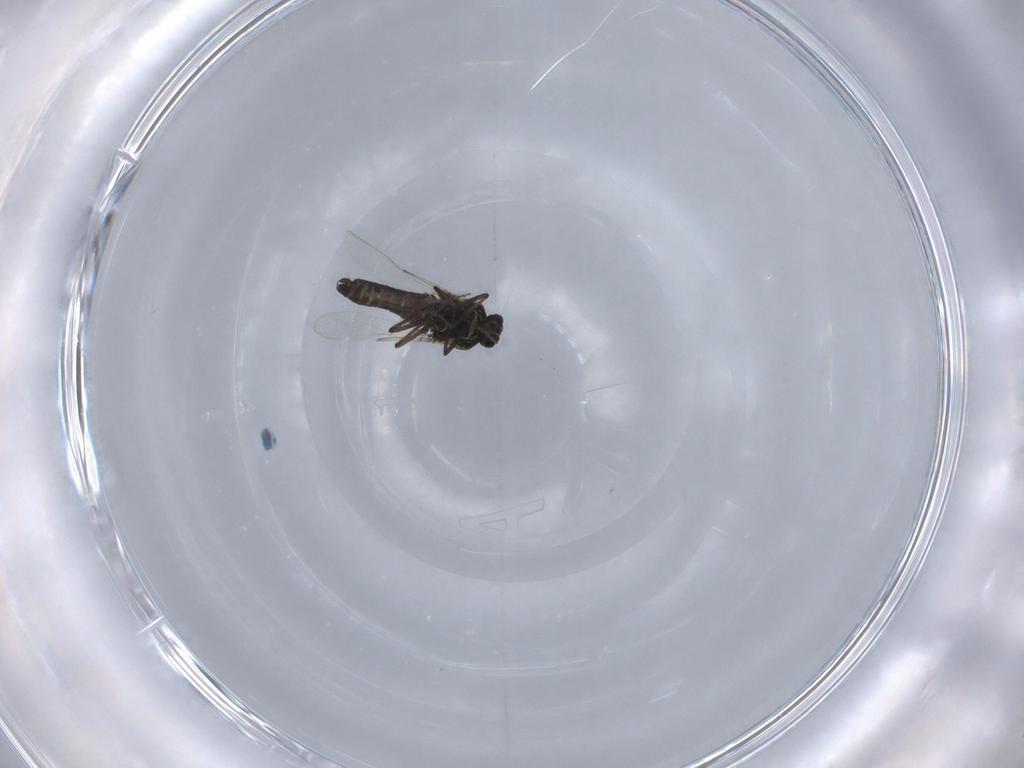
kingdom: Animalia
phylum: Arthropoda
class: Insecta
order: Diptera
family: Ceratopogonidae
